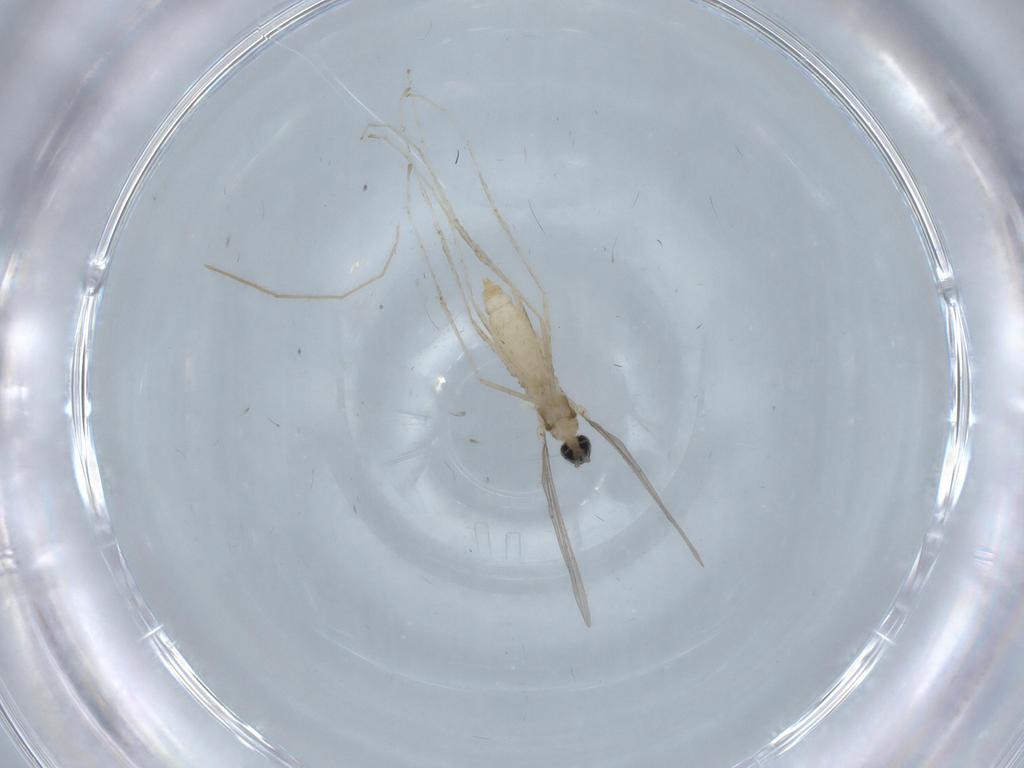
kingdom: Animalia
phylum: Arthropoda
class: Insecta
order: Diptera
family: Cecidomyiidae
